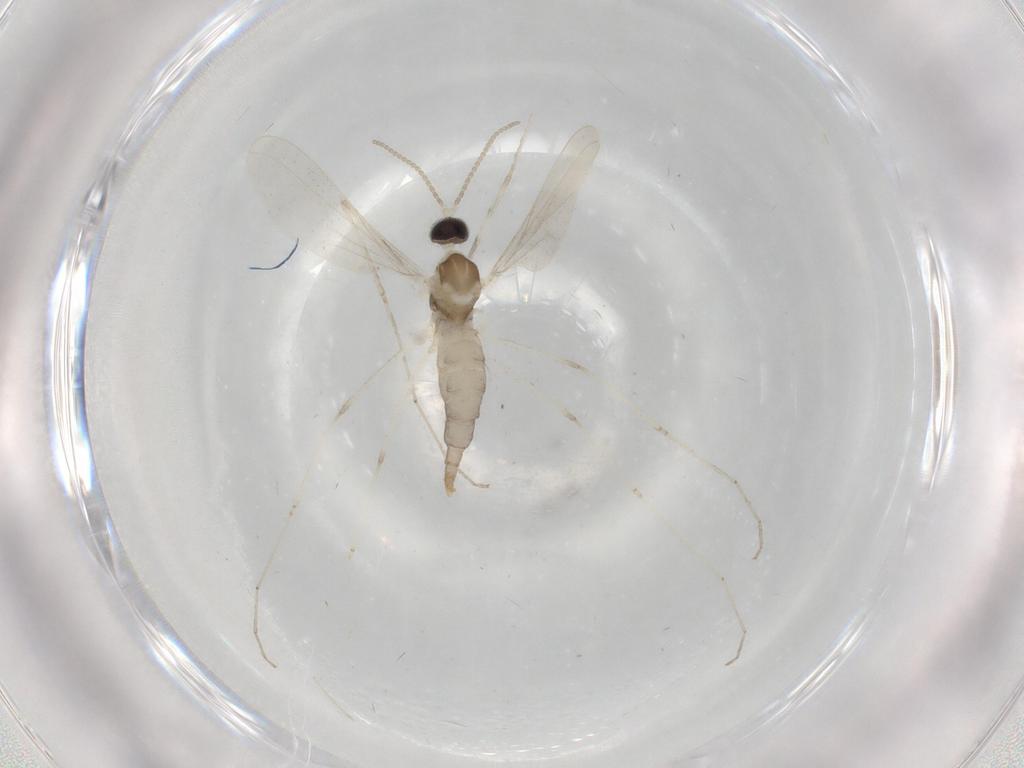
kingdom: Animalia
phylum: Arthropoda
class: Insecta
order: Diptera
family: Cecidomyiidae
